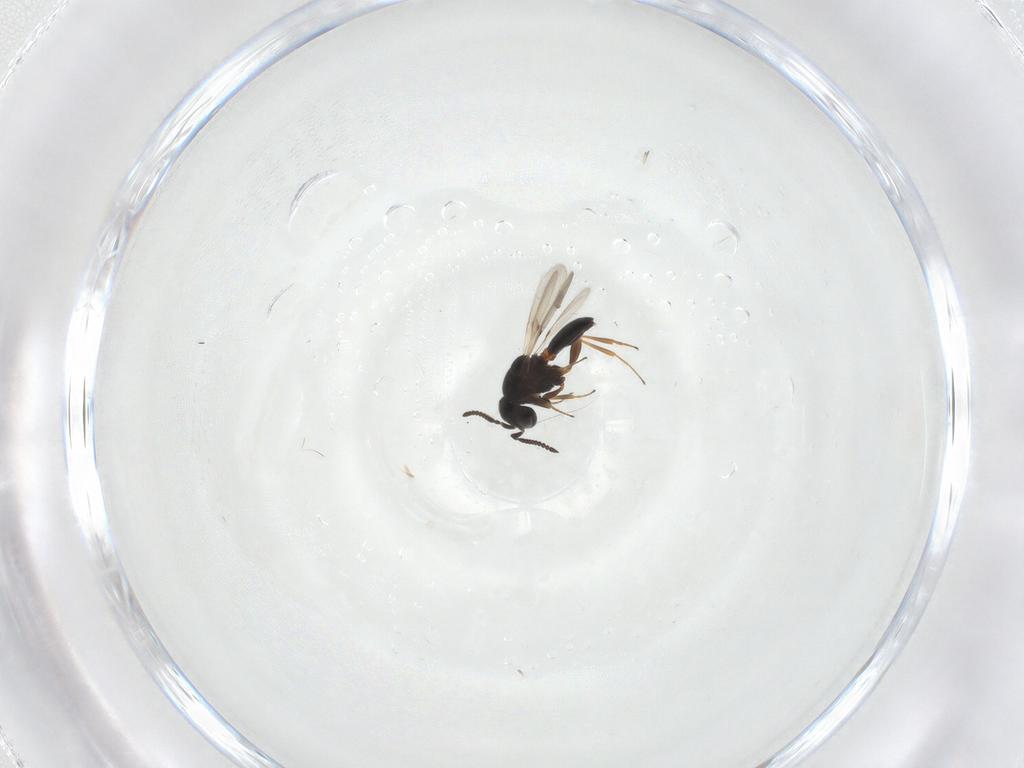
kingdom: Animalia
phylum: Arthropoda
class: Insecta
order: Hymenoptera
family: Scelionidae
